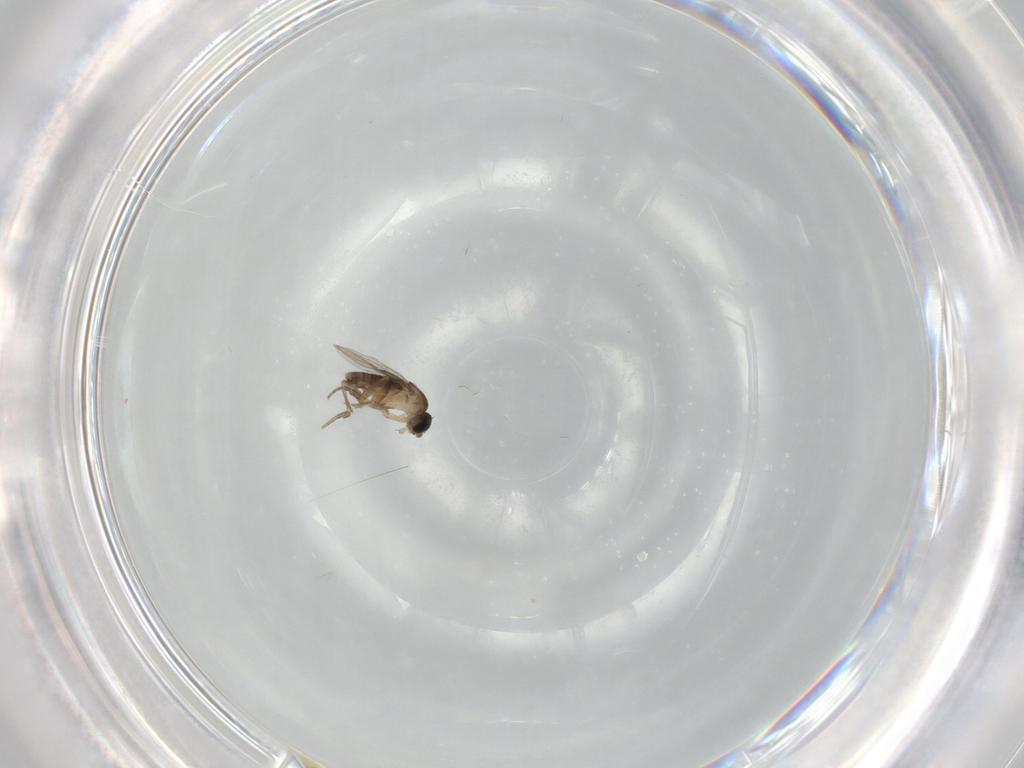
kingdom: Animalia
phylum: Arthropoda
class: Insecta
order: Diptera
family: Phoridae
